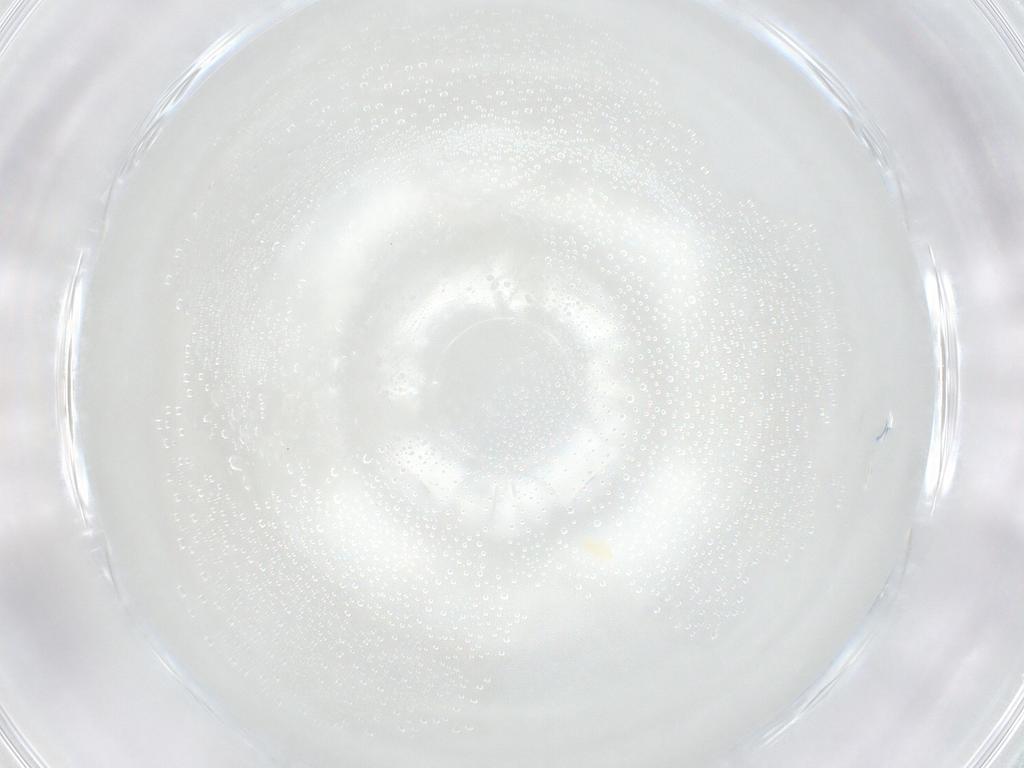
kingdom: Animalia
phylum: Arthropoda
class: Arachnida
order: Trombidiformes
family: Eupodidae
